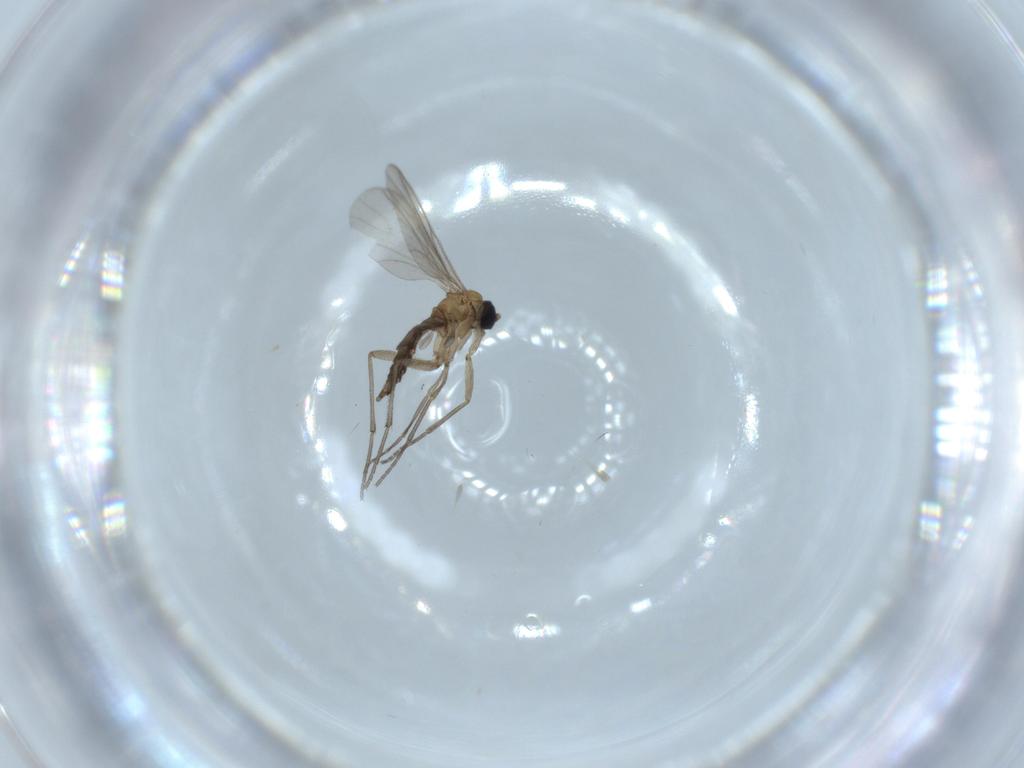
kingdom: Animalia
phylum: Arthropoda
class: Insecta
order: Diptera
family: Sciaridae
